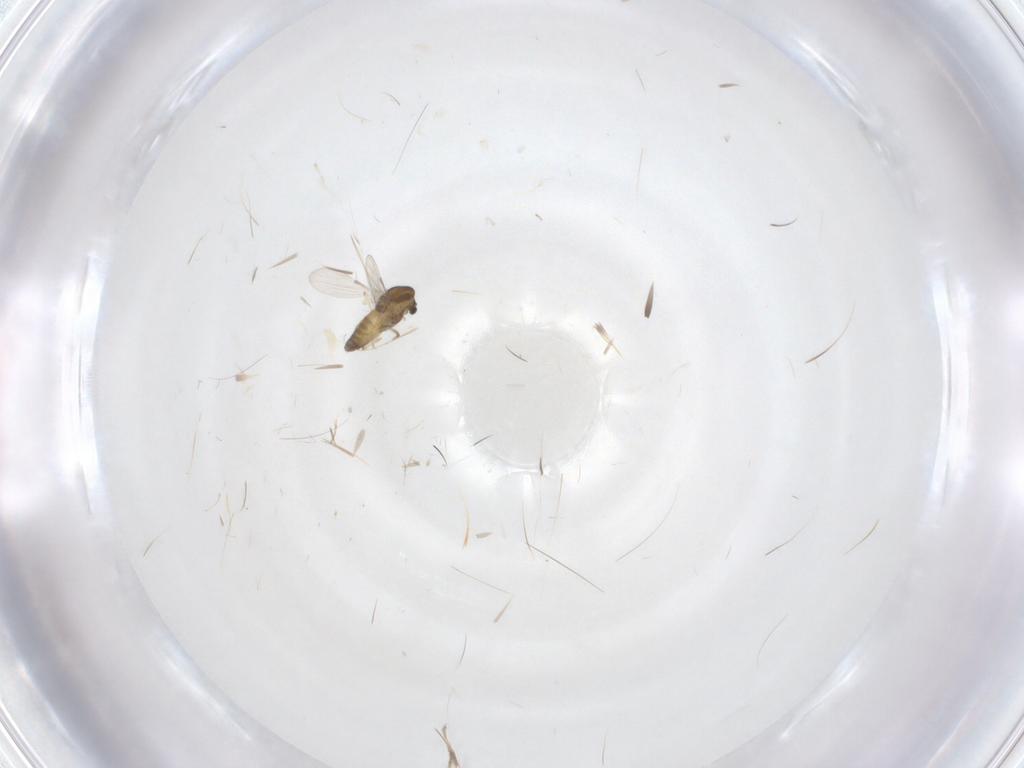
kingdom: Animalia
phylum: Arthropoda
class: Insecta
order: Diptera
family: Chironomidae
